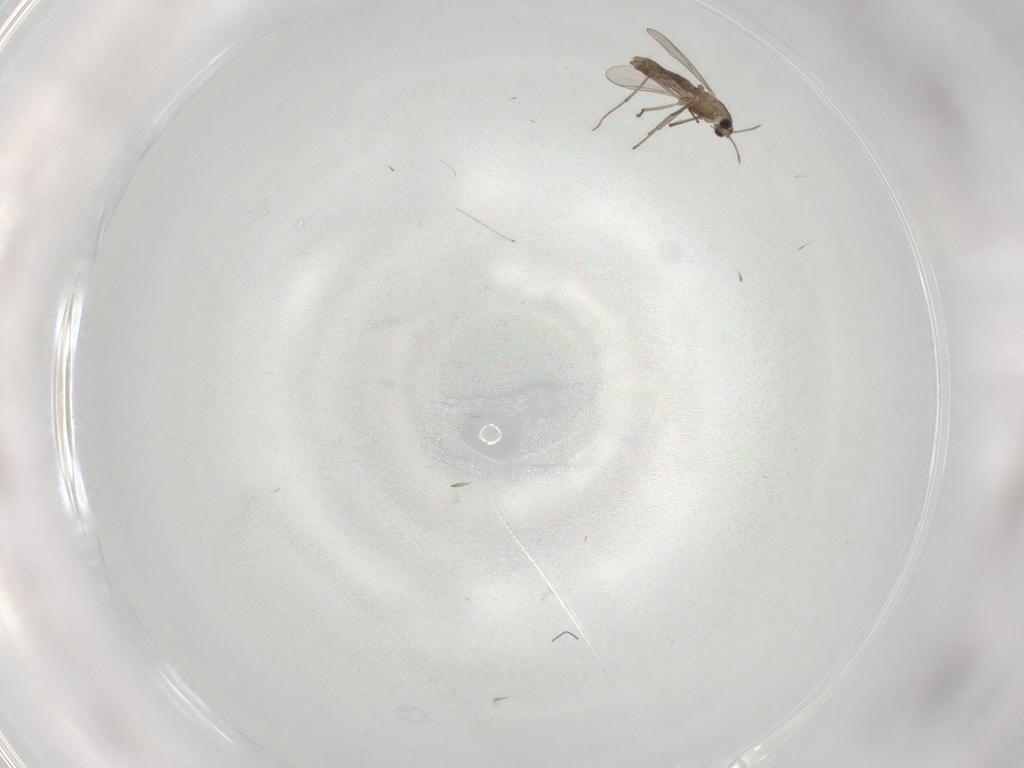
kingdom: Animalia
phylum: Arthropoda
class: Insecta
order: Diptera
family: Chironomidae
